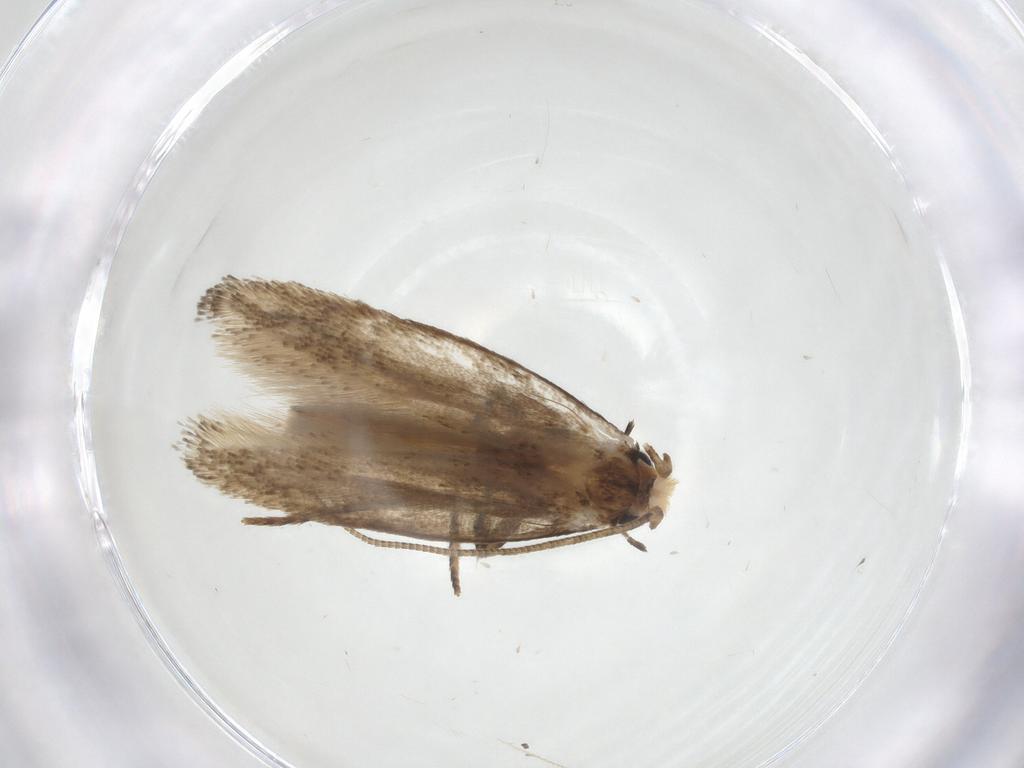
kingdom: Animalia
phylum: Arthropoda
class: Insecta
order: Lepidoptera
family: Tineidae
